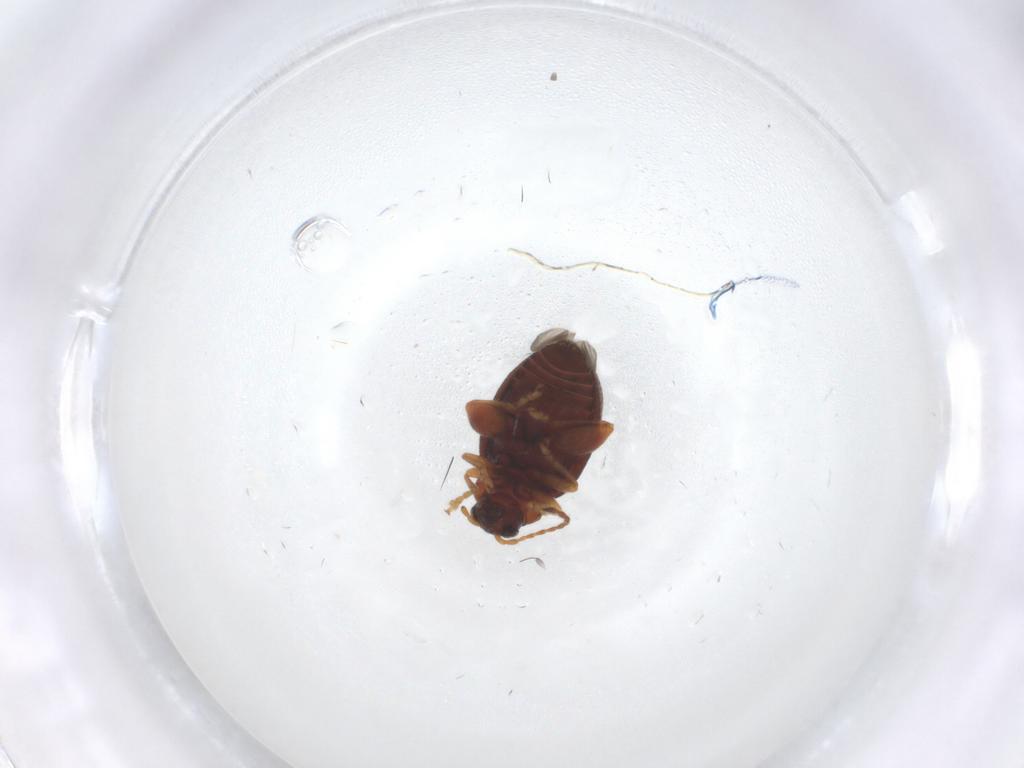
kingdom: Animalia
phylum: Arthropoda
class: Insecta
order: Coleoptera
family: Chrysomelidae
